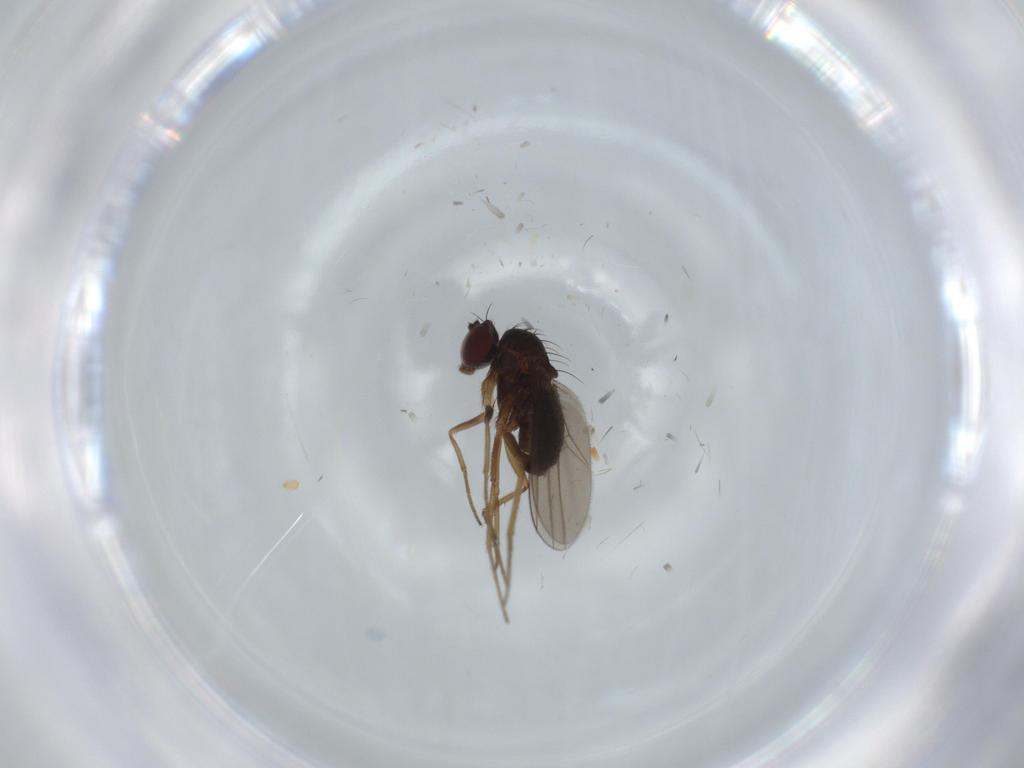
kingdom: Animalia
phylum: Arthropoda
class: Insecta
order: Diptera
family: Dolichopodidae
